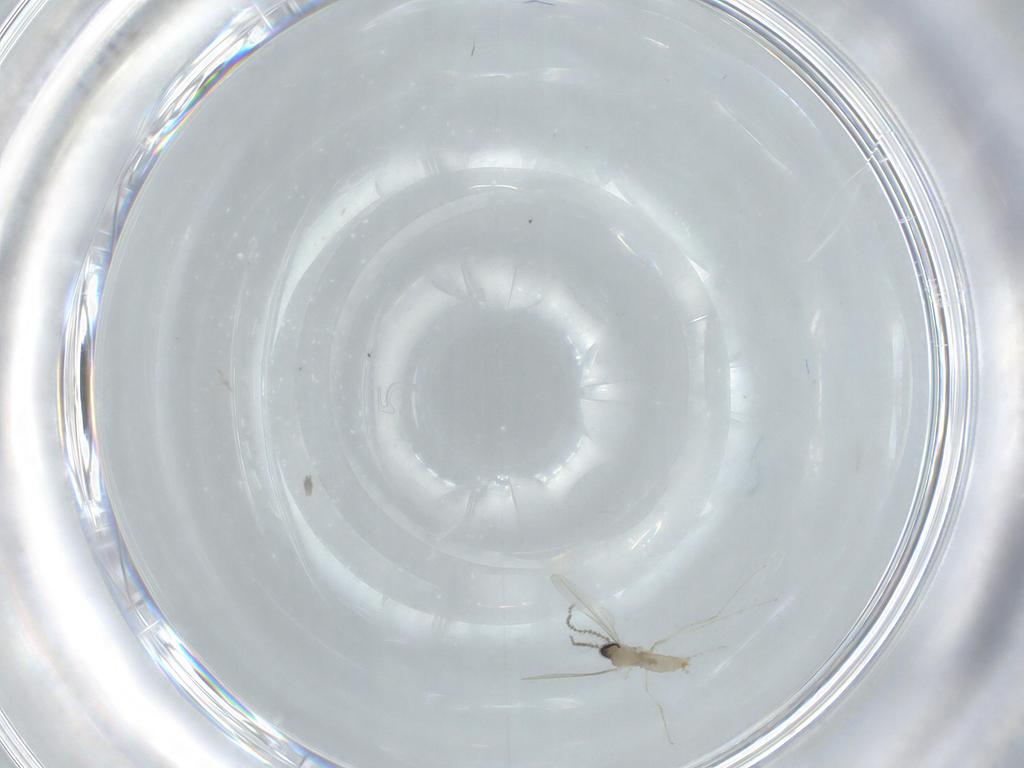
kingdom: Animalia
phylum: Arthropoda
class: Insecta
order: Diptera
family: Cecidomyiidae
